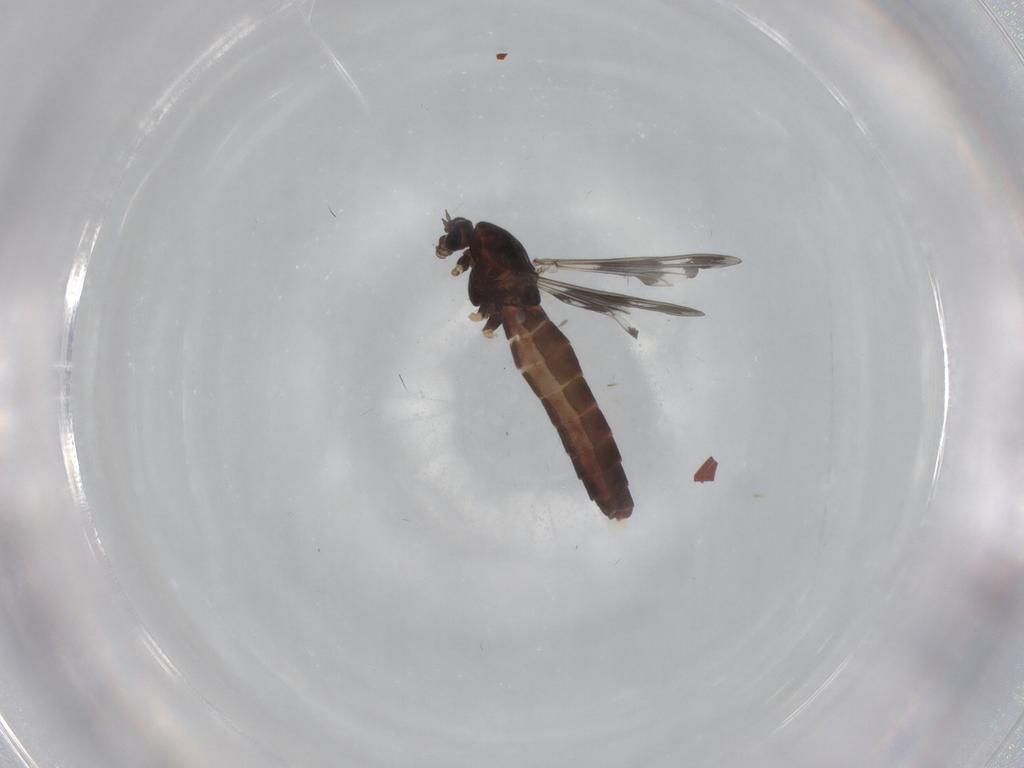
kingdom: Animalia
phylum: Arthropoda
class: Insecta
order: Diptera
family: Chironomidae
